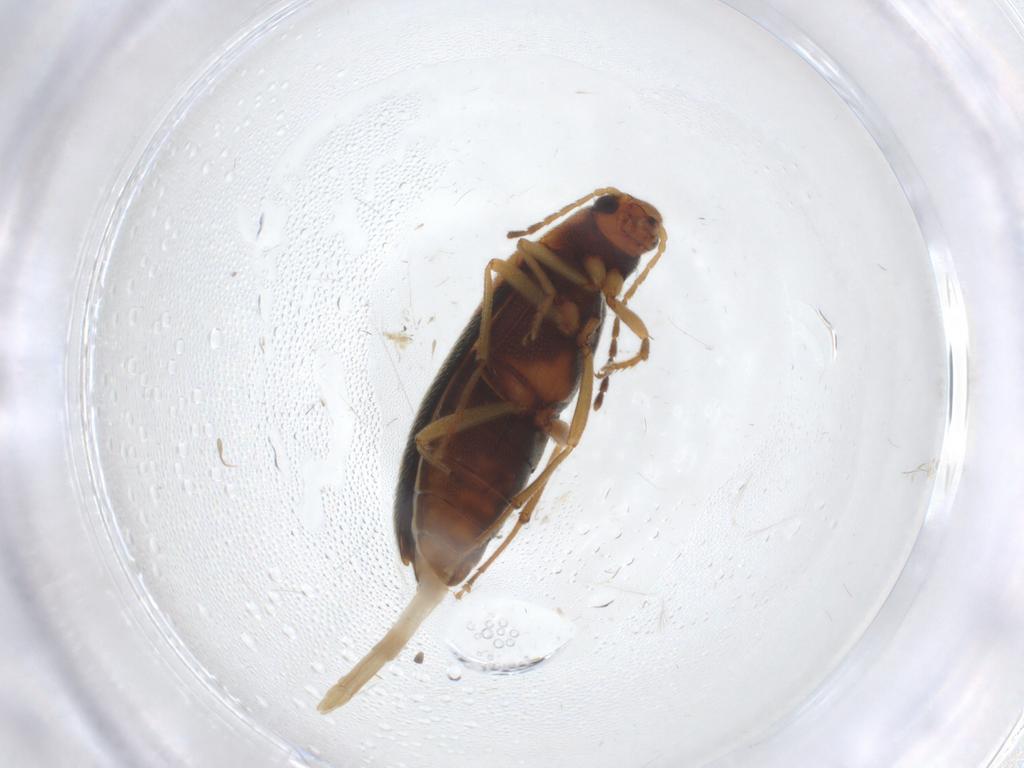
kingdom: Animalia
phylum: Arthropoda
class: Insecta
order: Coleoptera
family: Melandryidae
